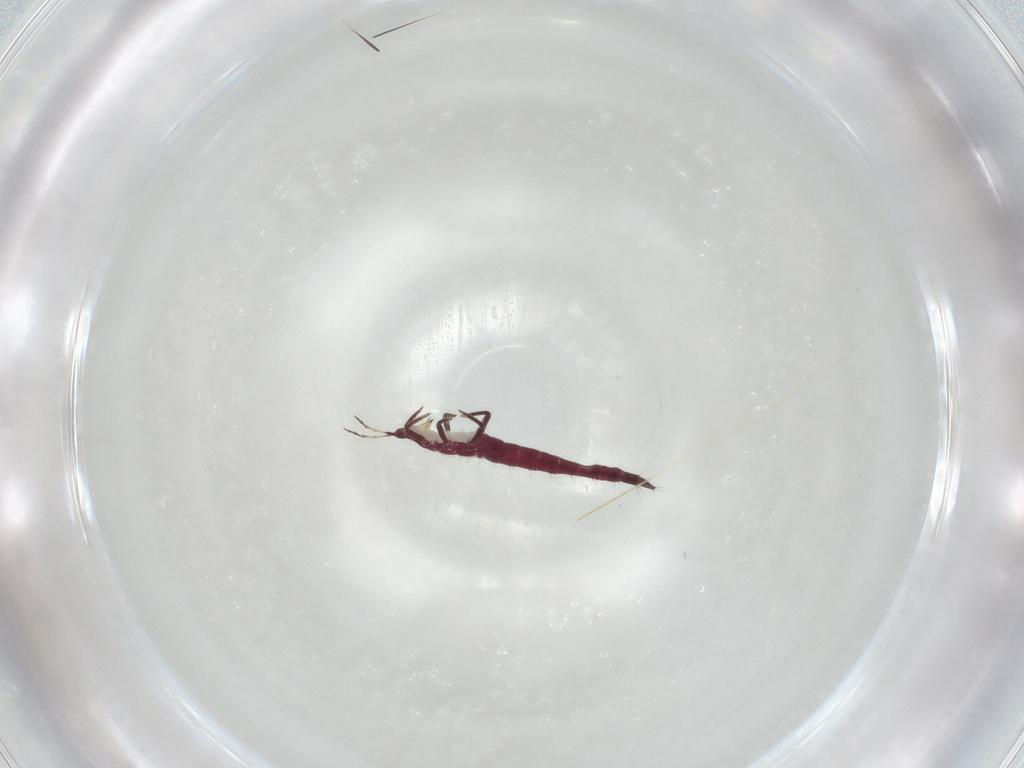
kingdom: Animalia
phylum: Arthropoda
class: Insecta
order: Thysanoptera
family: Phlaeothripidae
